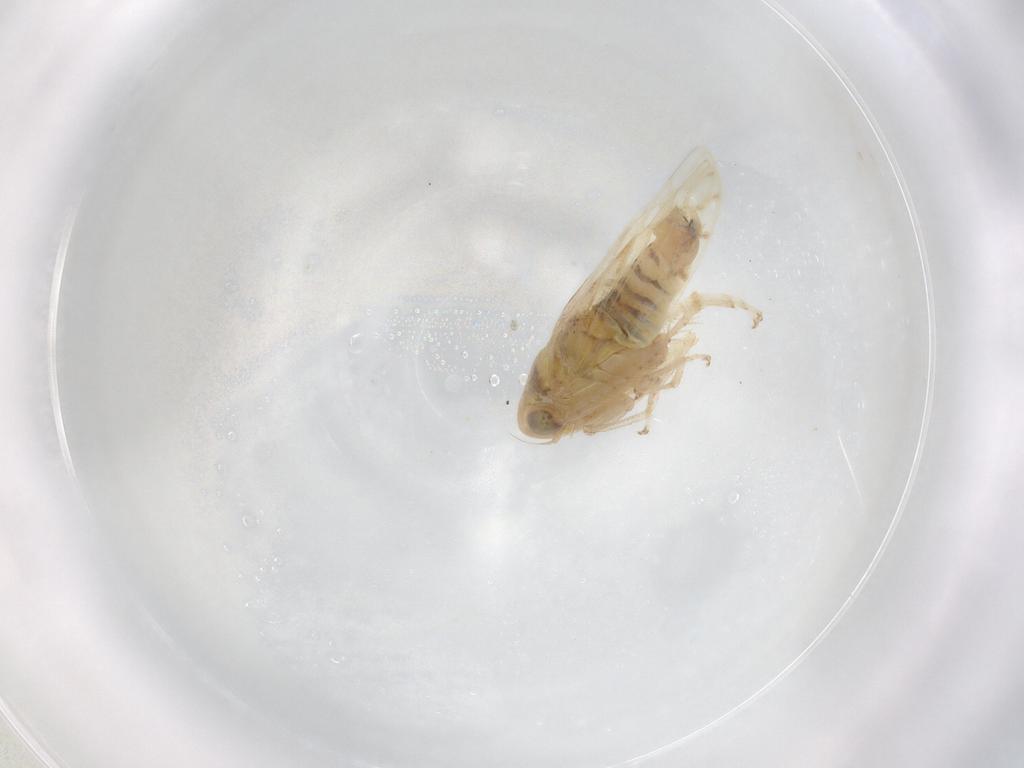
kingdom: Animalia
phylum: Arthropoda
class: Insecta
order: Hemiptera
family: Cicadellidae
